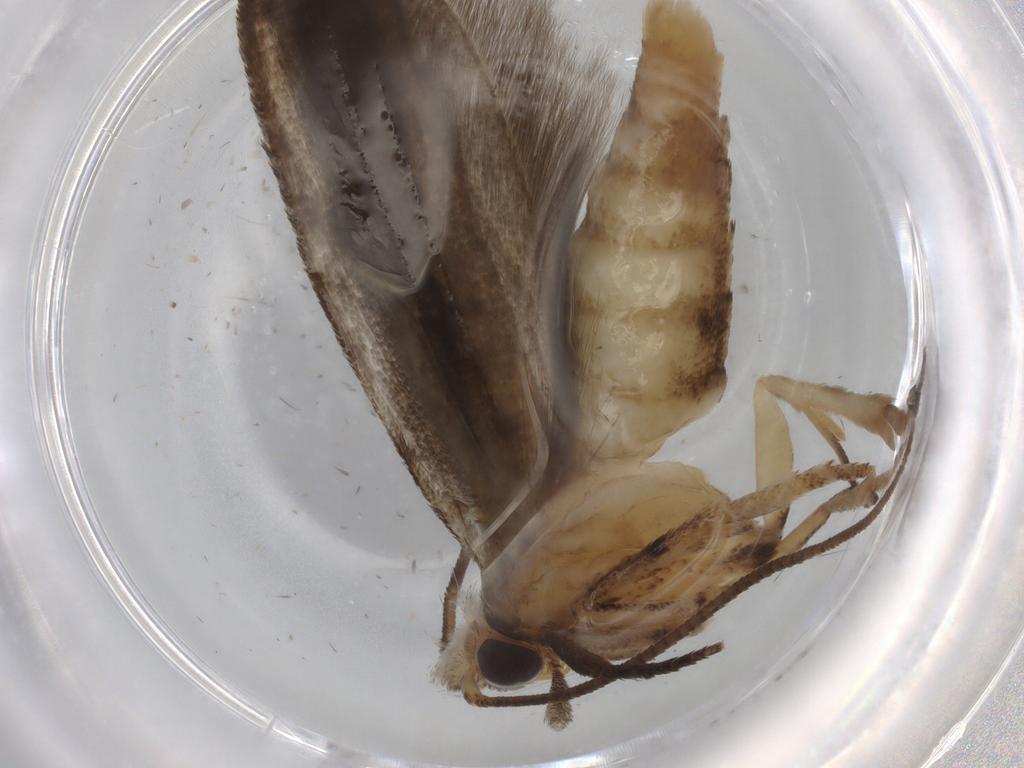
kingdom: Animalia
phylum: Arthropoda
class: Insecta
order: Lepidoptera
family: Yponomeutidae
